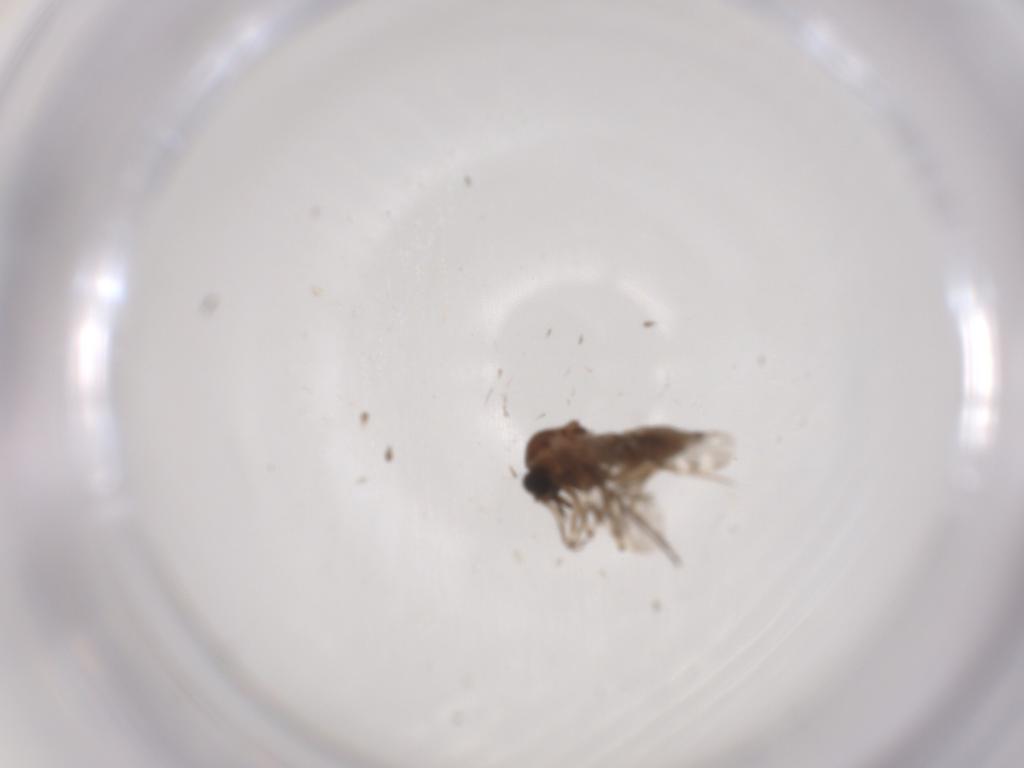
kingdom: Animalia
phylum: Arthropoda
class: Insecta
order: Diptera
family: Chironomidae
